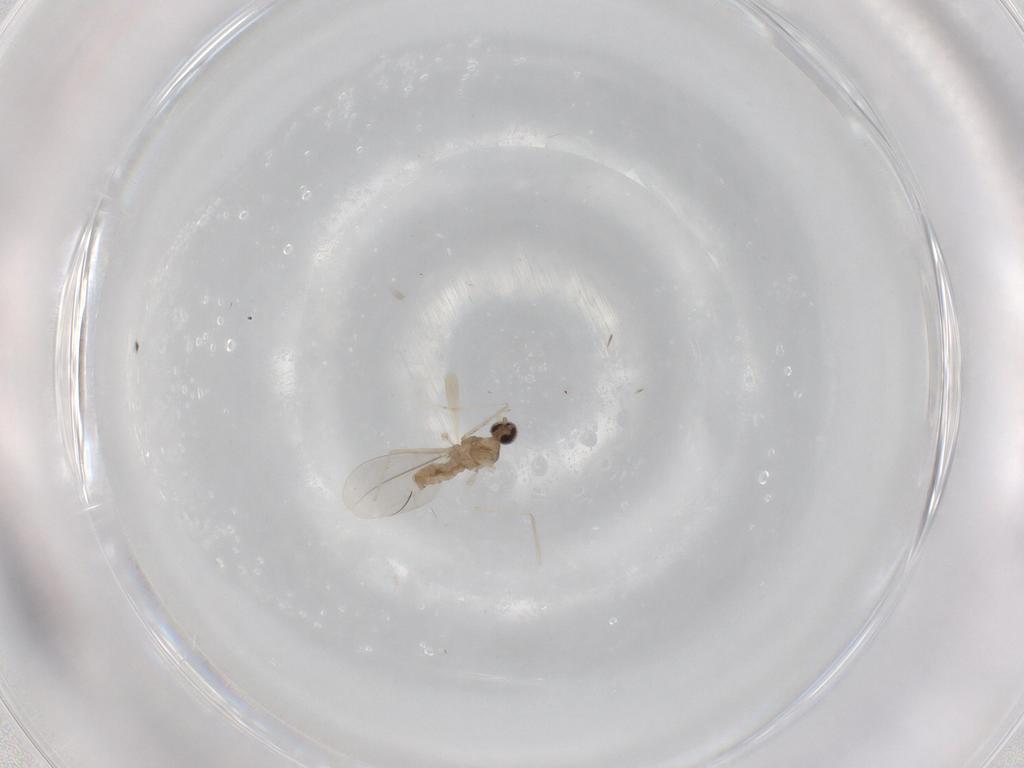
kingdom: Animalia
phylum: Arthropoda
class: Insecta
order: Diptera
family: Cecidomyiidae
